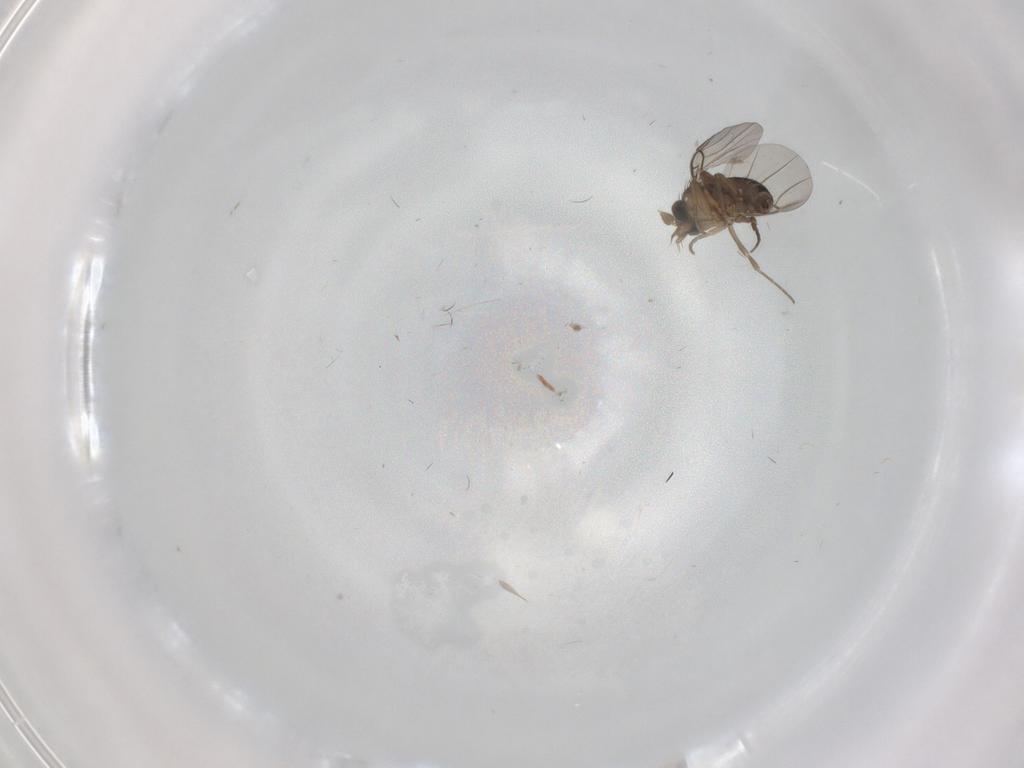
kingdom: Animalia
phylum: Arthropoda
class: Insecta
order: Diptera
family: Phoridae
